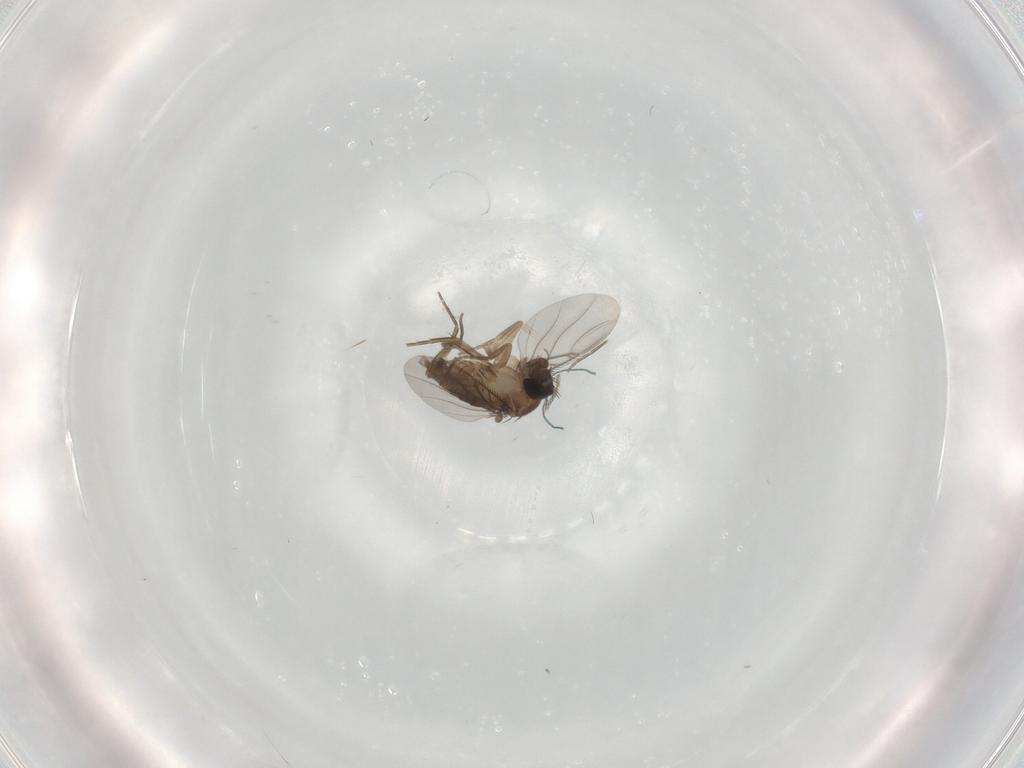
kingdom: Animalia
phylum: Arthropoda
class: Insecta
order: Diptera
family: Phoridae
